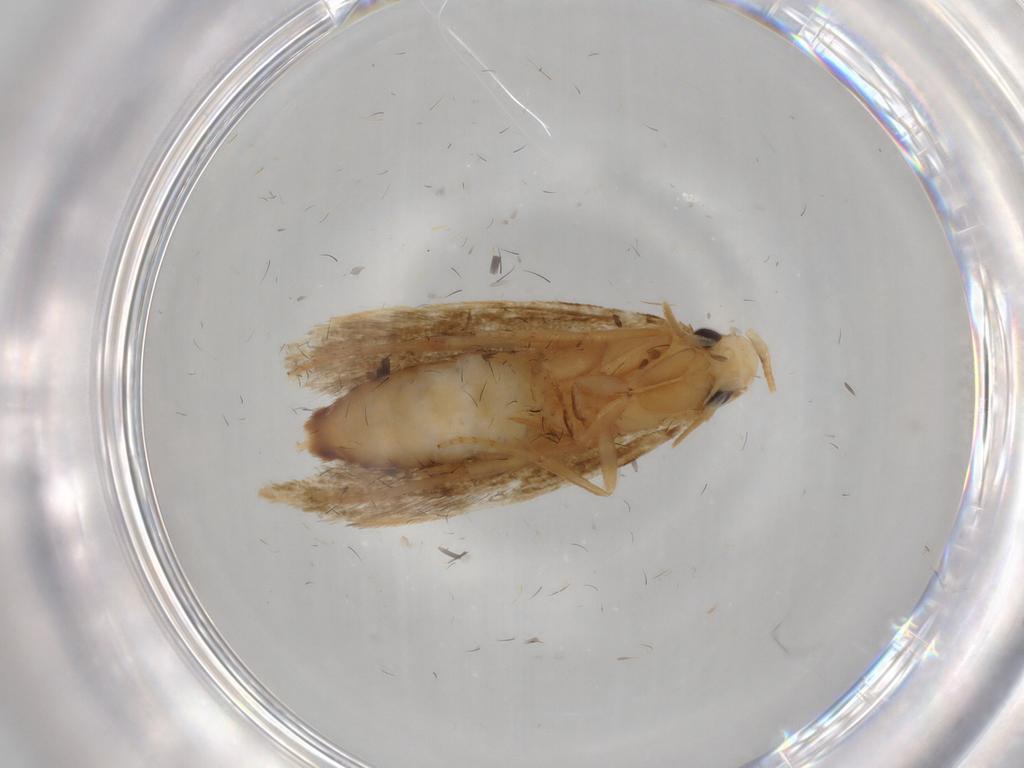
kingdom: Animalia
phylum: Arthropoda
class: Insecta
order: Lepidoptera
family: Tineidae
